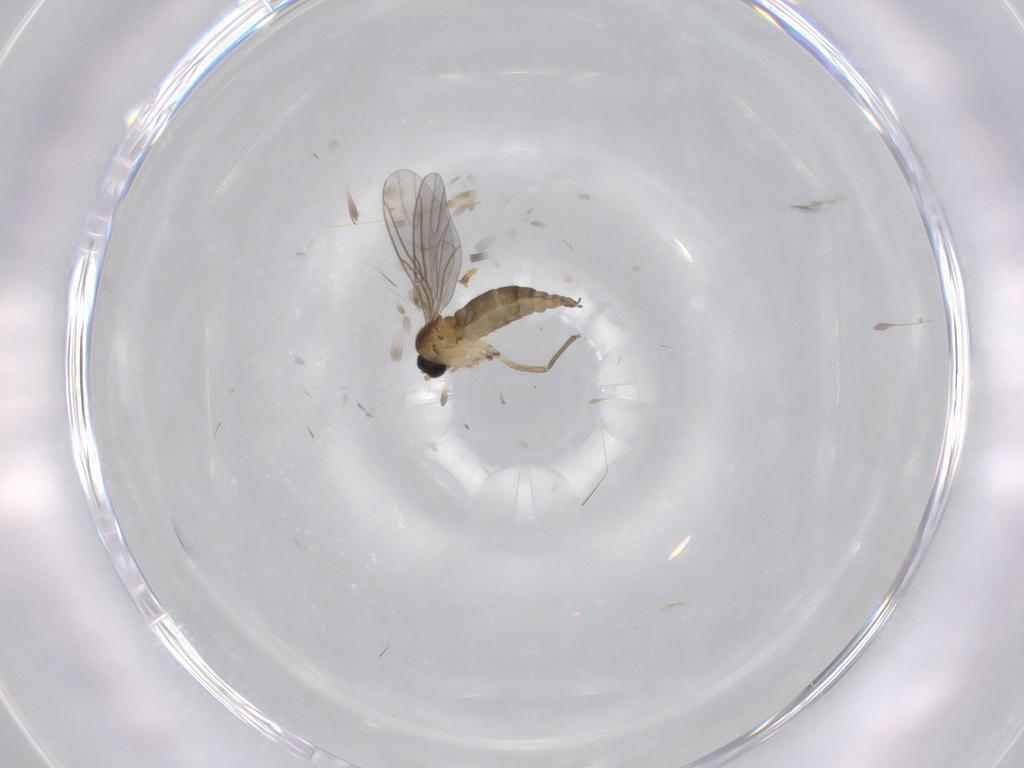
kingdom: Animalia
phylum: Arthropoda
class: Insecta
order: Diptera
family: Sciaridae
